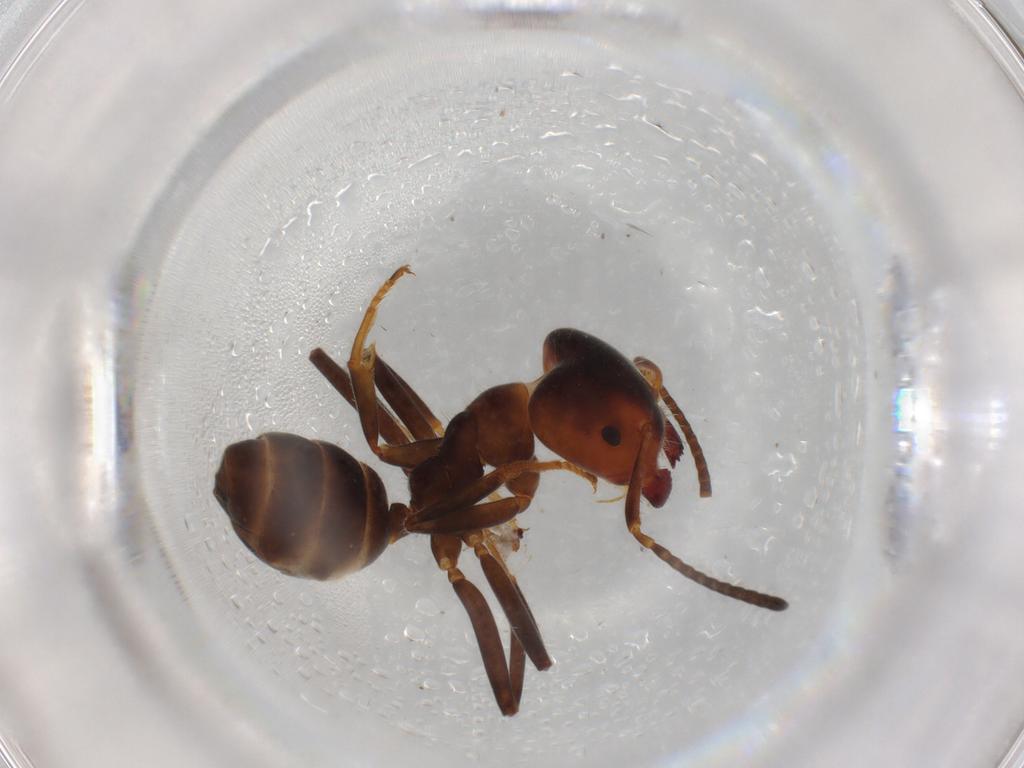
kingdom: Animalia
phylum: Arthropoda
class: Insecta
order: Hymenoptera
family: Formicidae
